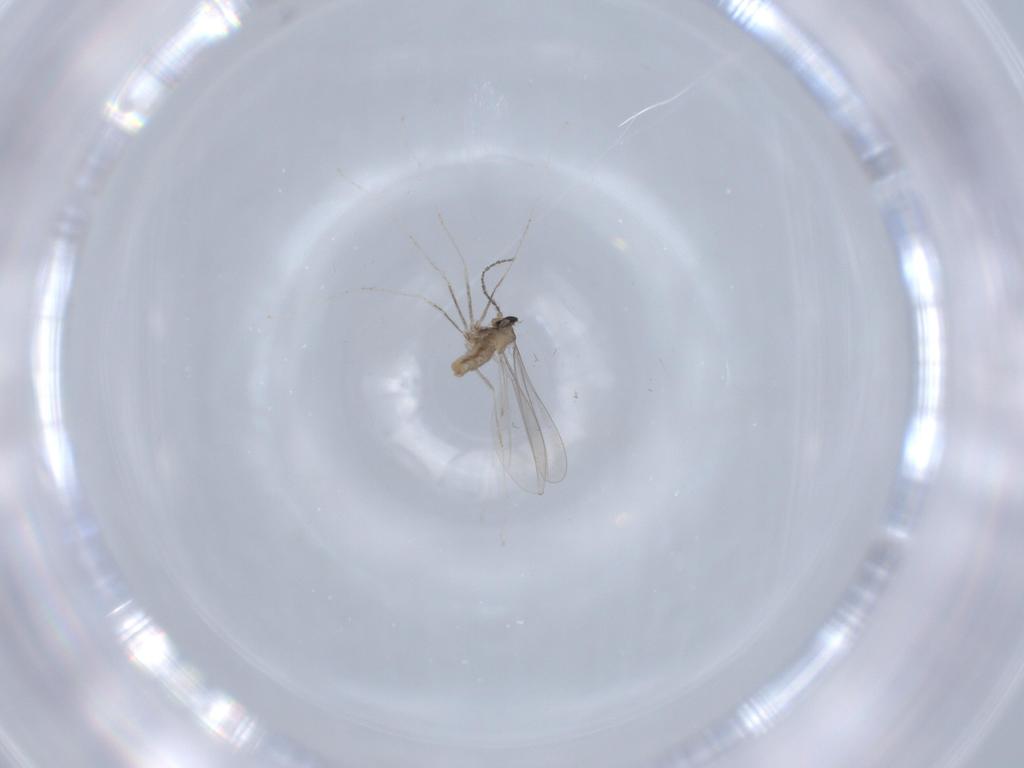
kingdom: Animalia
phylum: Arthropoda
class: Insecta
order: Diptera
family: Cecidomyiidae
